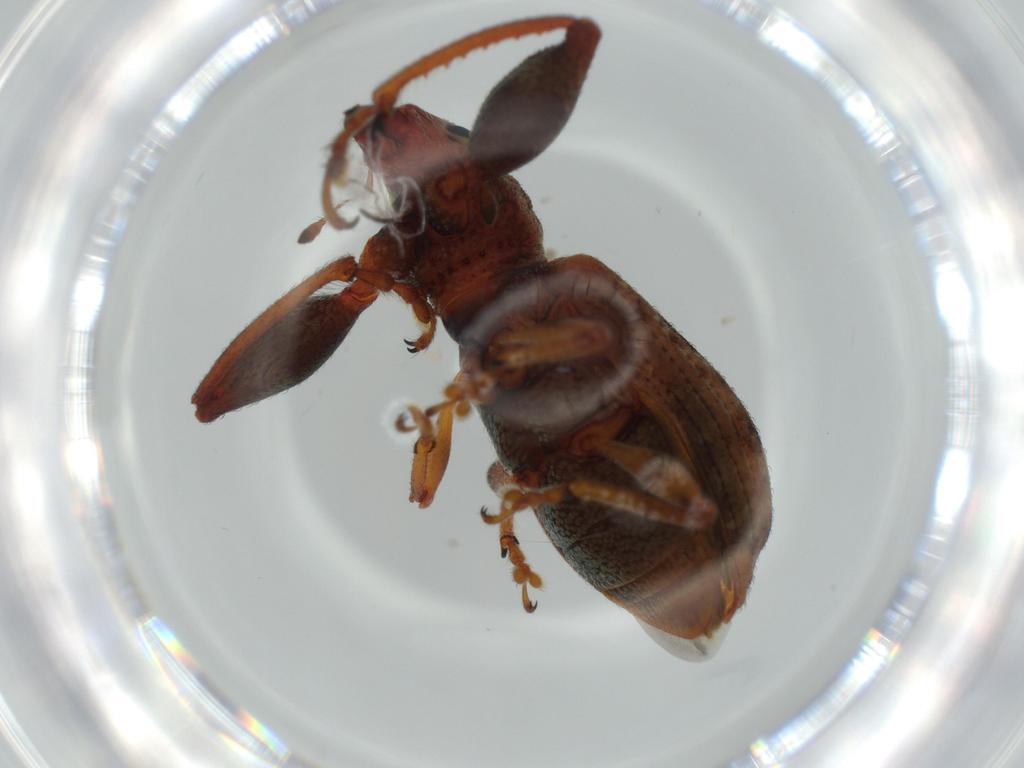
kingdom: Animalia
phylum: Arthropoda
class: Insecta
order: Coleoptera
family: Curculionidae
